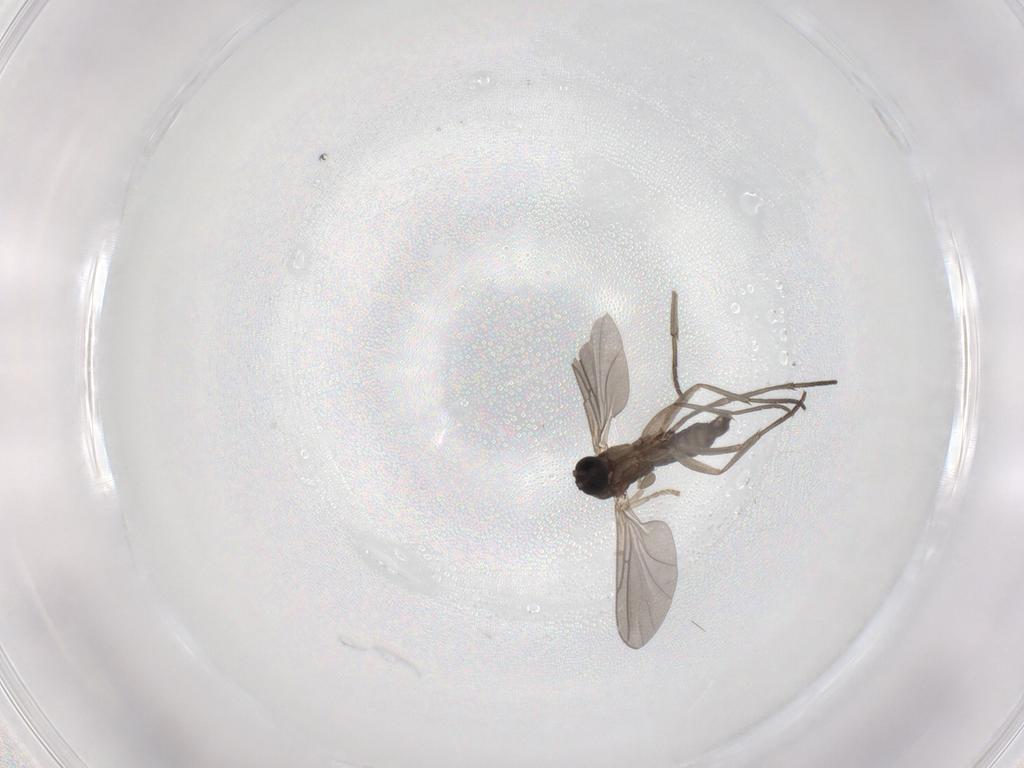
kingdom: Animalia
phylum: Arthropoda
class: Insecta
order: Diptera
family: Sciaridae
